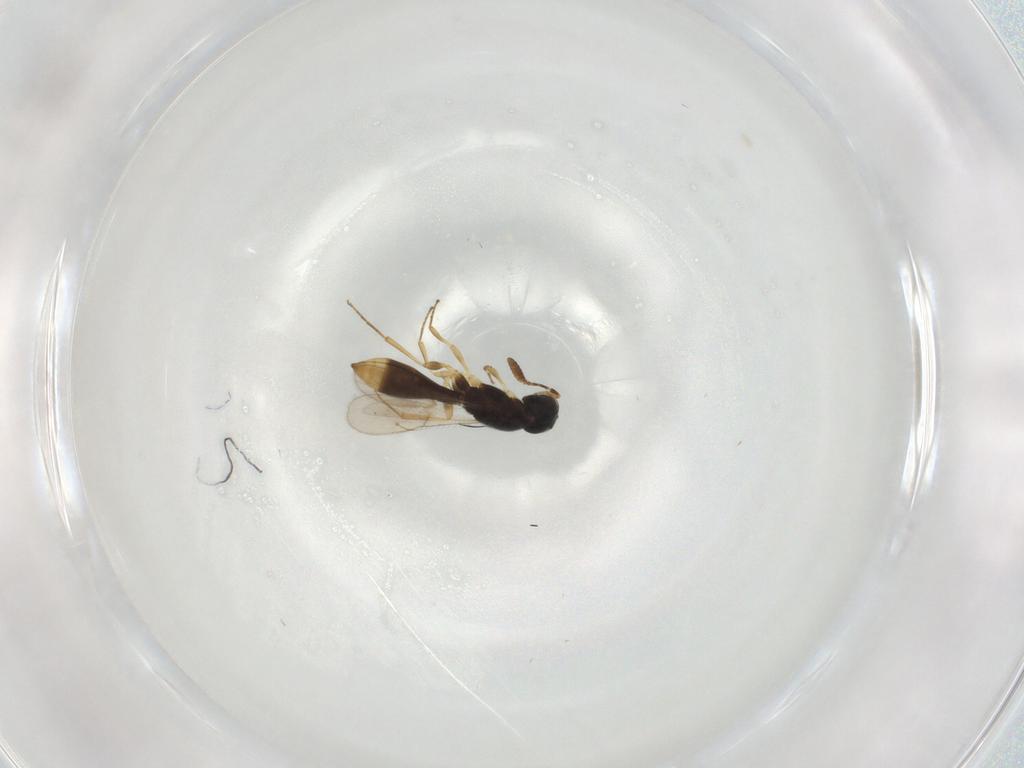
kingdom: Animalia
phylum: Arthropoda
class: Insecta
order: Hymenoptera
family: Scelionidae
